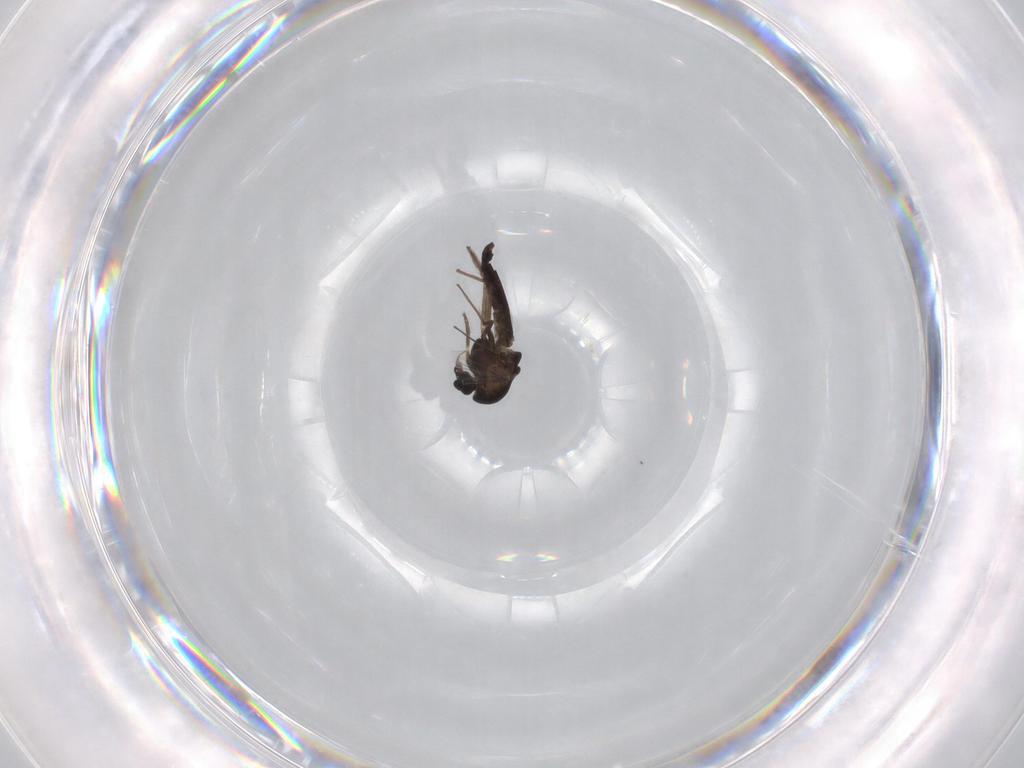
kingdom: Animalia
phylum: Arthropoda
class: Insecta
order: Diptera
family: Chironomidae
